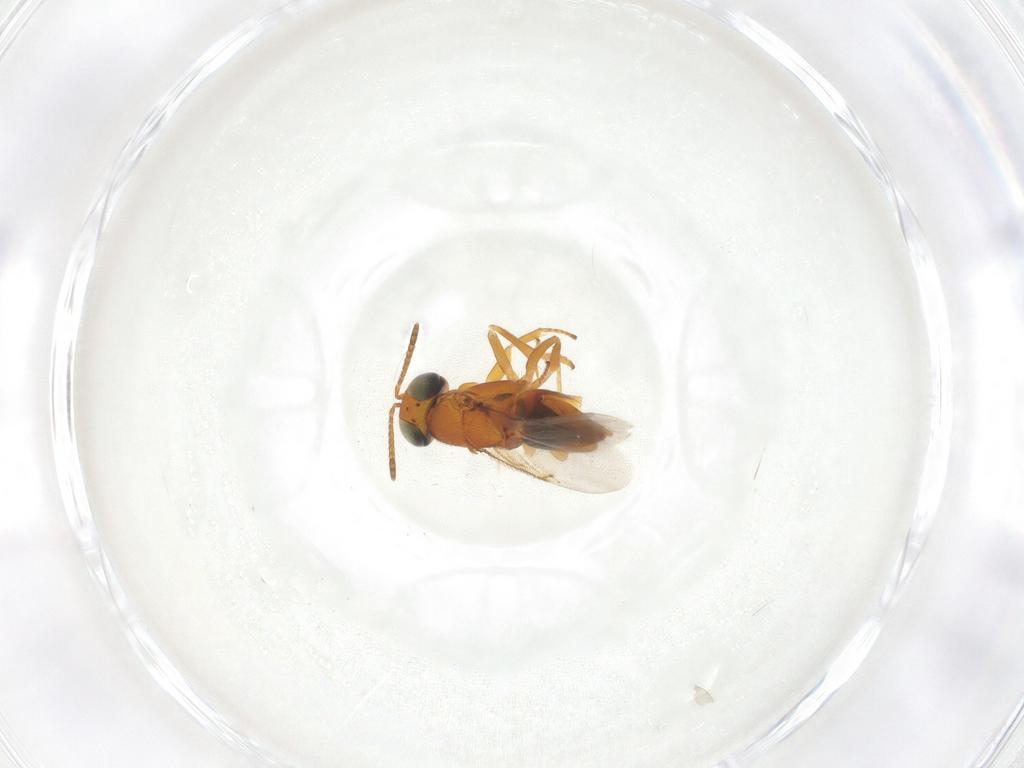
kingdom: Animalia
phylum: Arthropoda
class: Insecta
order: Hymenoptera
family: Encyrtidae
